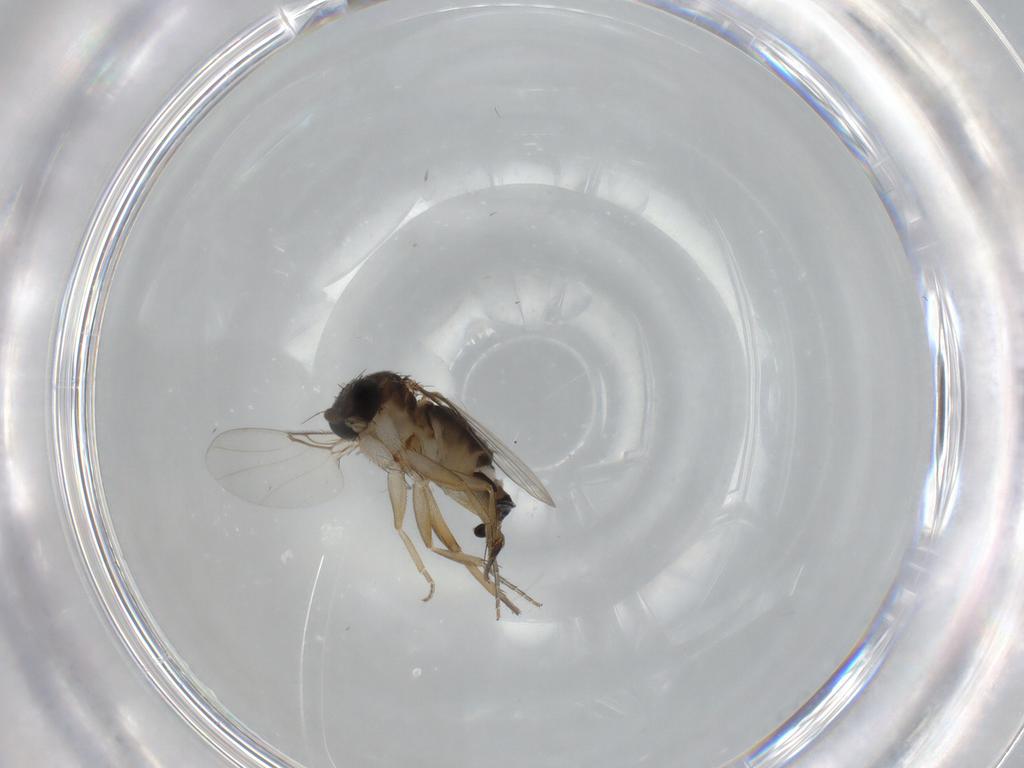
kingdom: Animalia
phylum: Arthropoda
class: Insecta
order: Diptera
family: Phoridae
